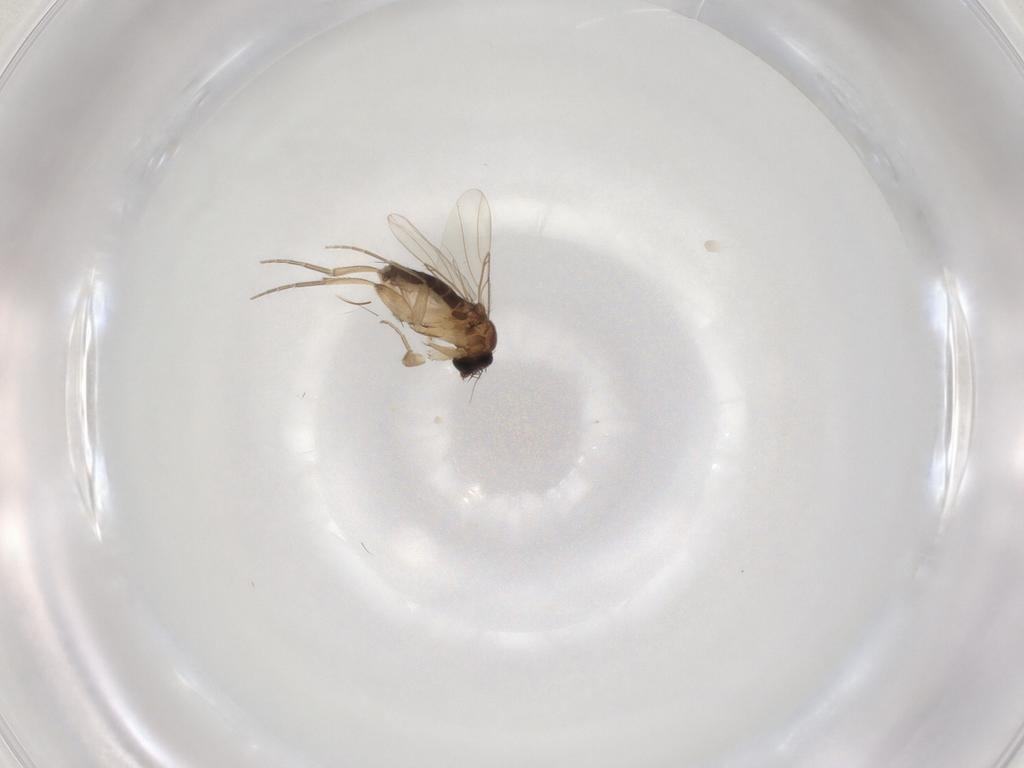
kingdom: Animalia
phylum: Arthropoda
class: Insecta
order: Diptera
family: Phoridae
